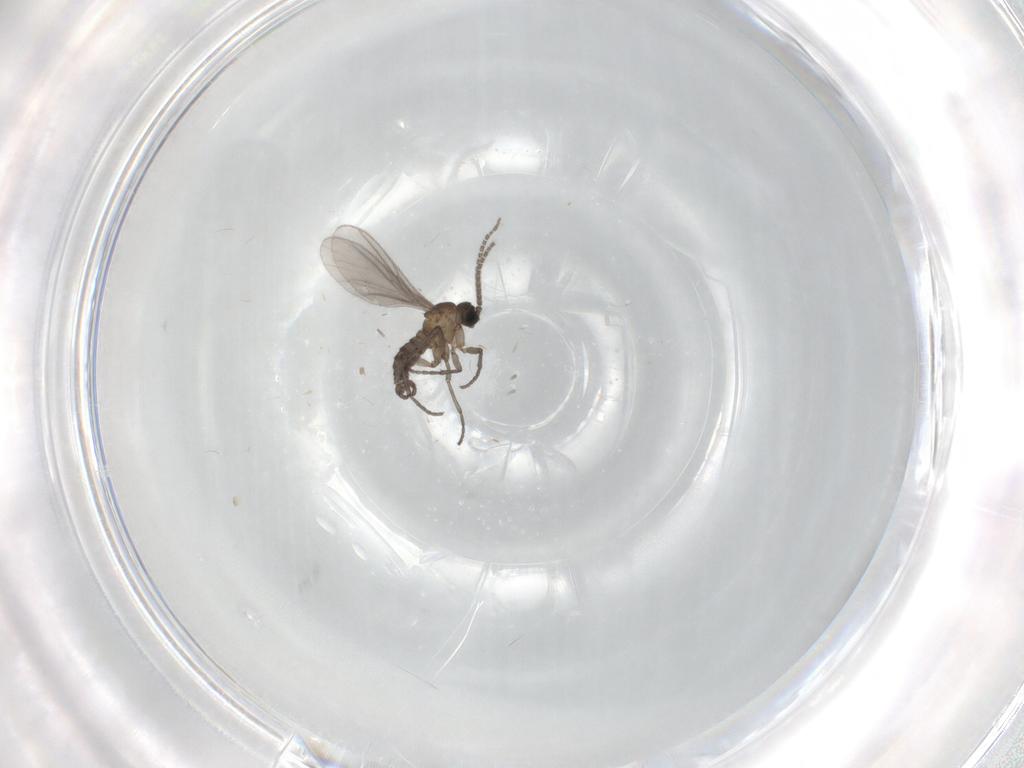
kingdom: Animalia
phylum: Arthropoda
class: Insecta
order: Diptera
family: Sciaridae
